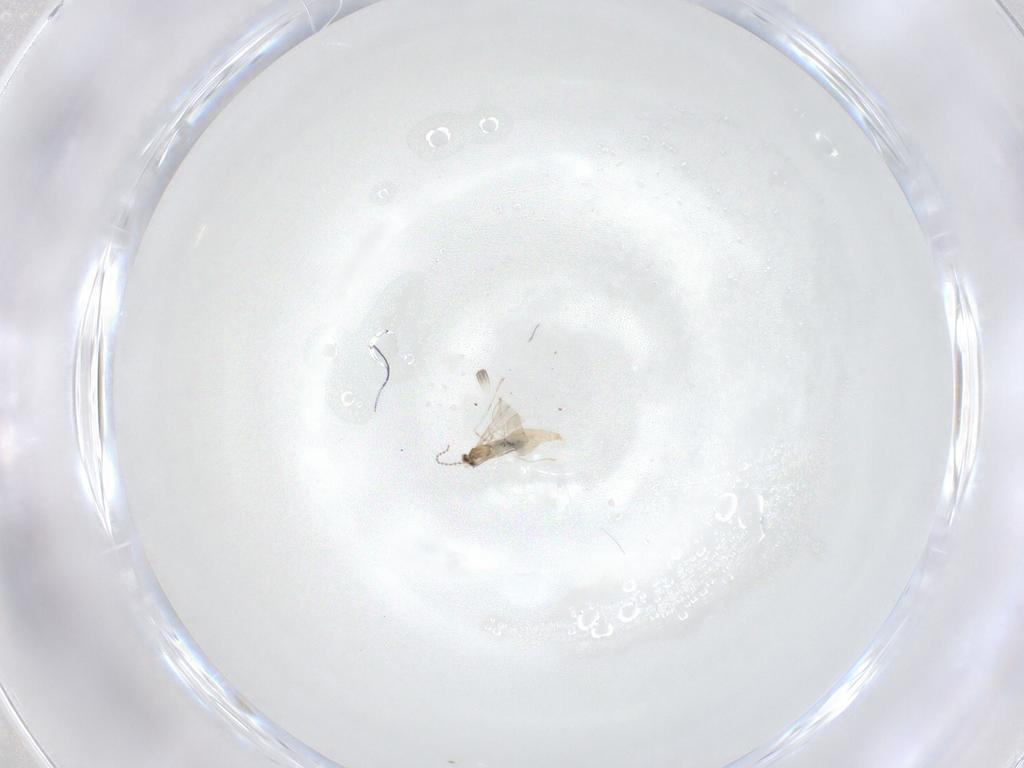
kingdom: Animalia
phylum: Arthropoda
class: Insecta
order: Diptera
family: Cecidomyiidae
